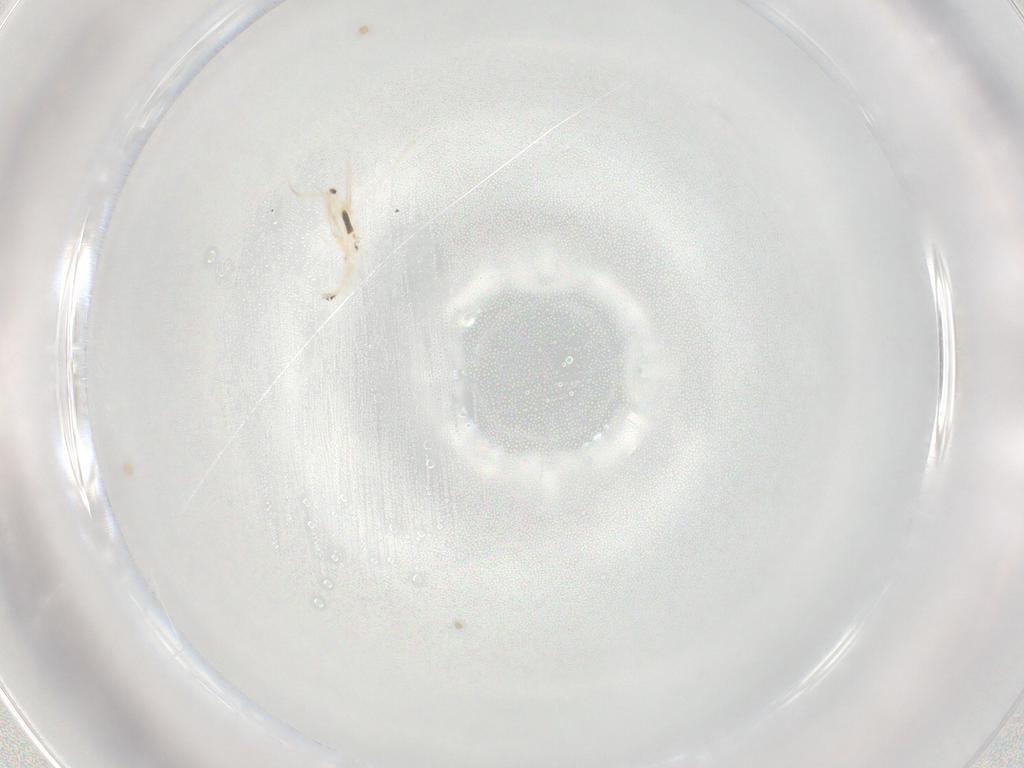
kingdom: Animalia
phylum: Arthropoda
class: Collembola
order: Entomobryomorpha
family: Entomobryidae
